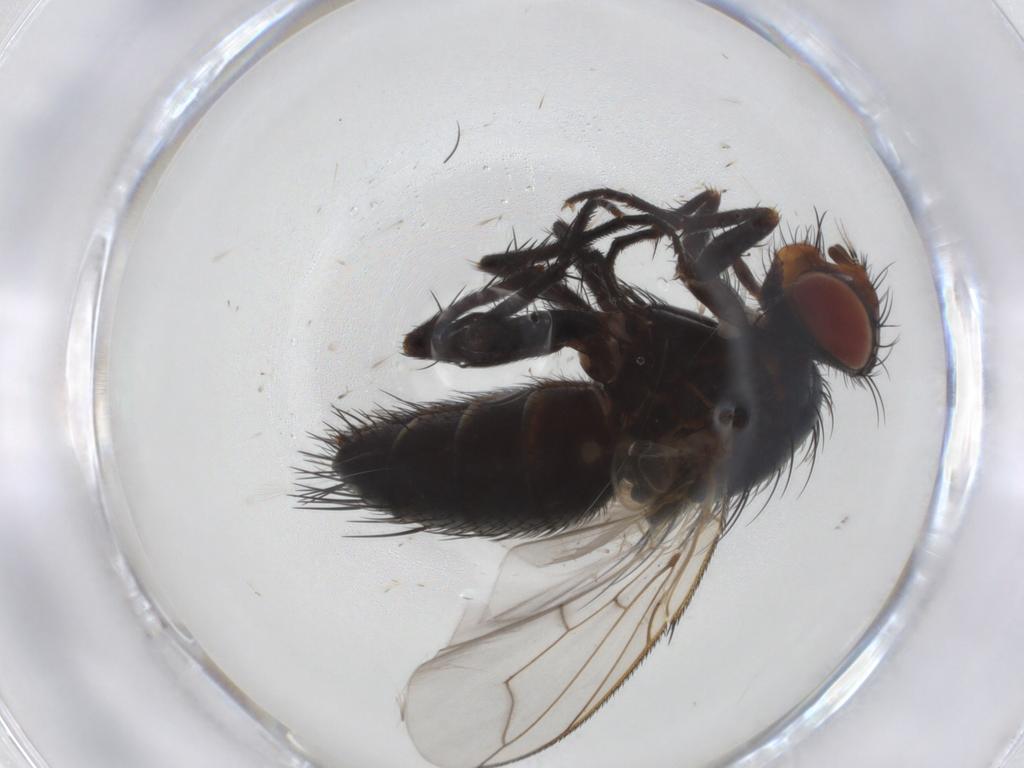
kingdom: Animalia
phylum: Arthropoda
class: Insecta
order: Diptera
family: Tachinidae
